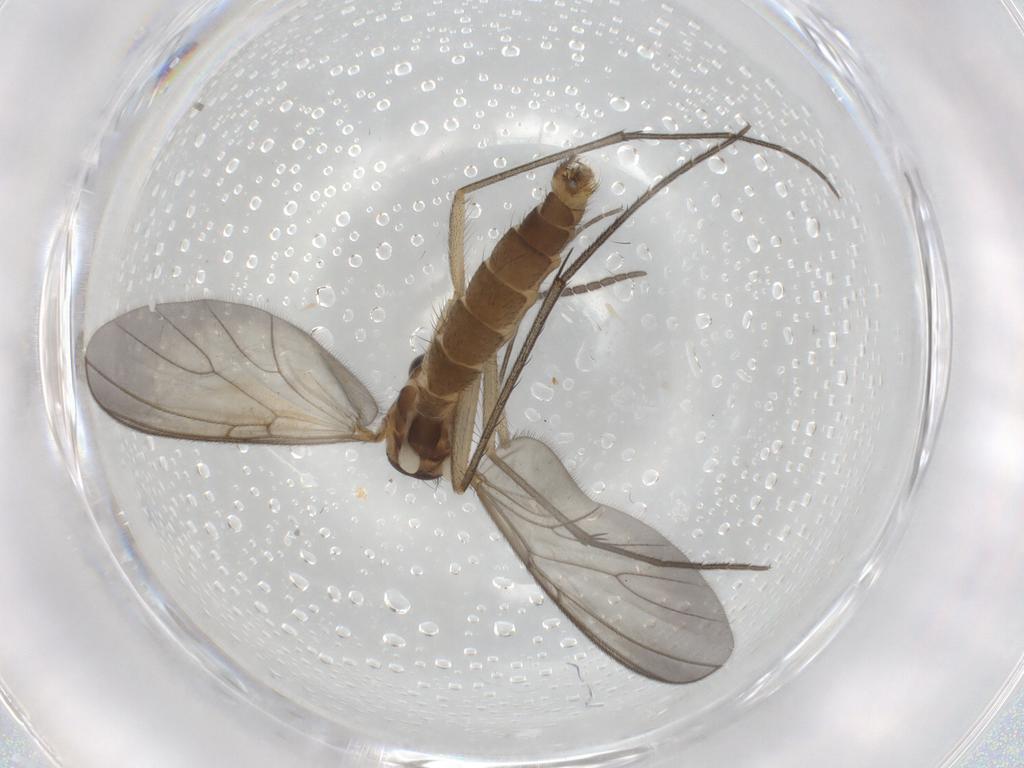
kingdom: Animalia
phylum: Arthropoda
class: Insecta
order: Diptera
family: Mycetophilidae
